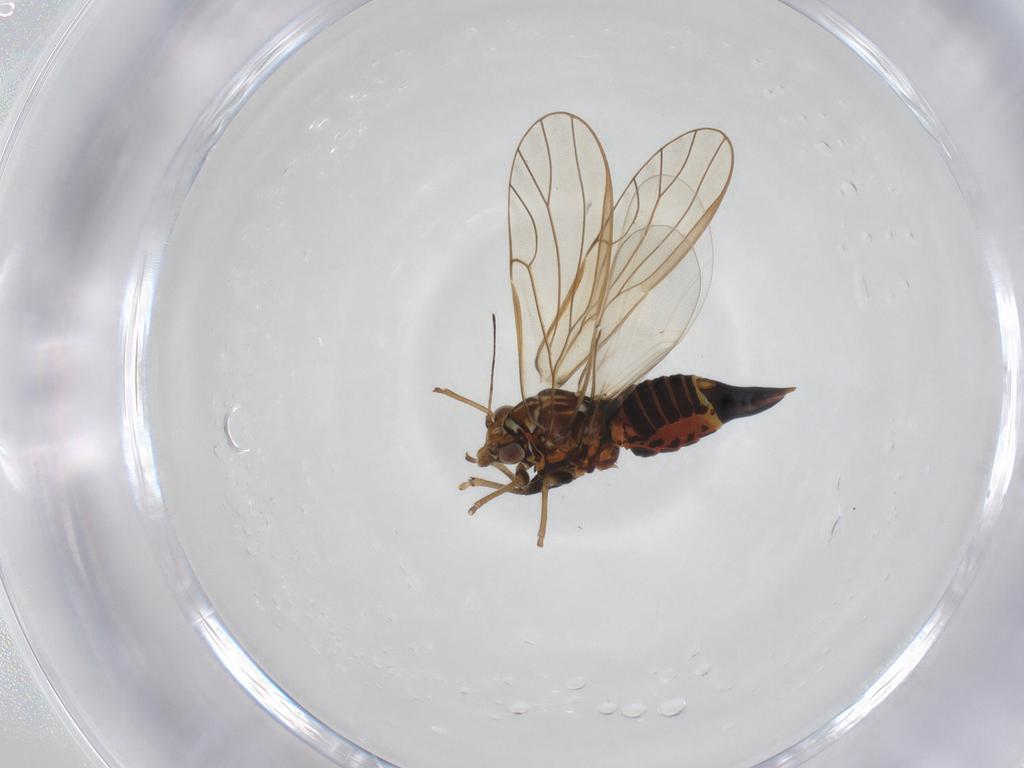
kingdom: Animalia
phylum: Arthropoda
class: Insecta
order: Hemiptera
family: Psyllidae
